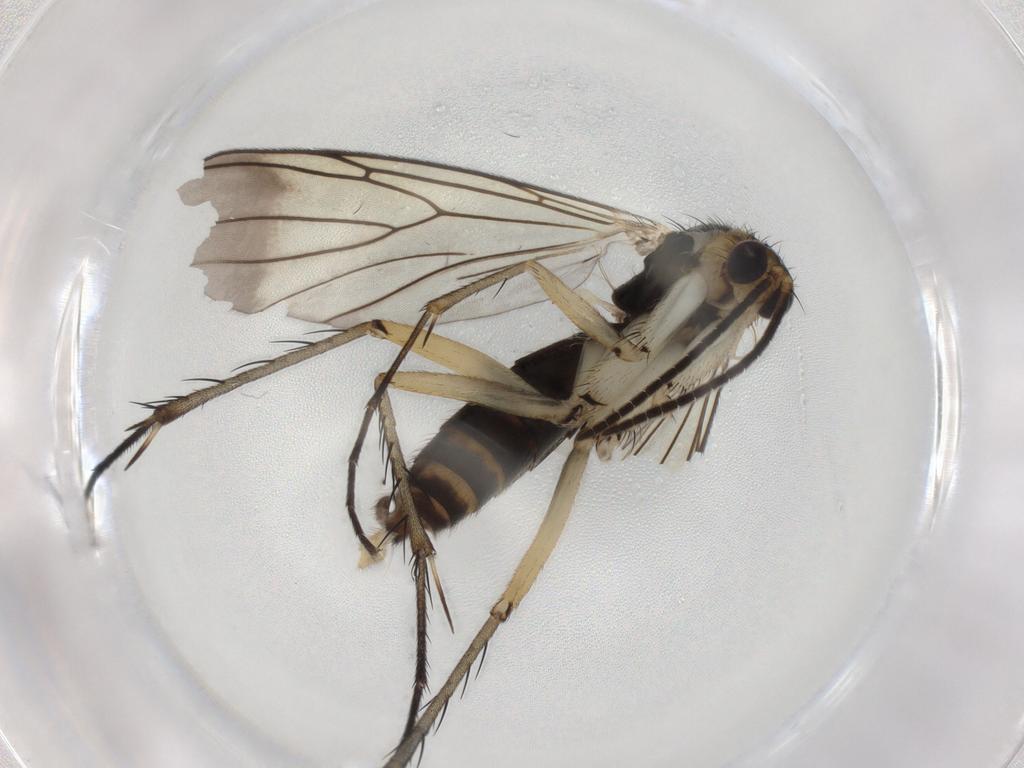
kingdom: Animalia
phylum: Arthropoda
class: Insecta
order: Diptera
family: Mycetophilidae
